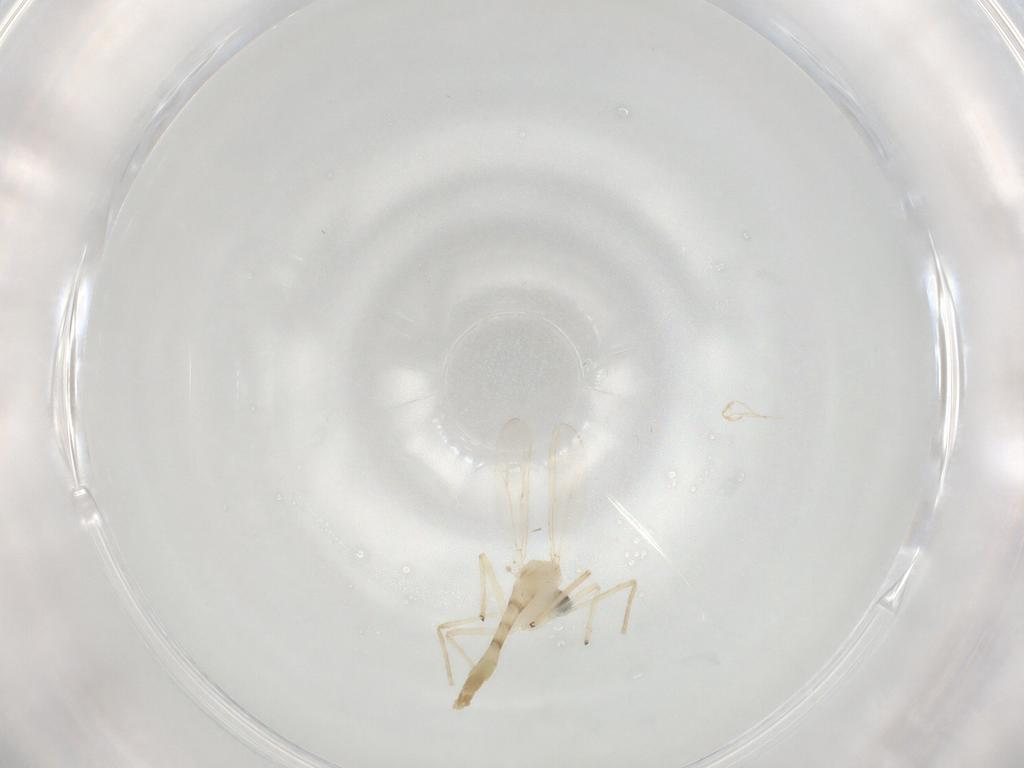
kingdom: Animalia
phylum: Arthropoda
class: Insecta
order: Diptera
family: Chironomidae
